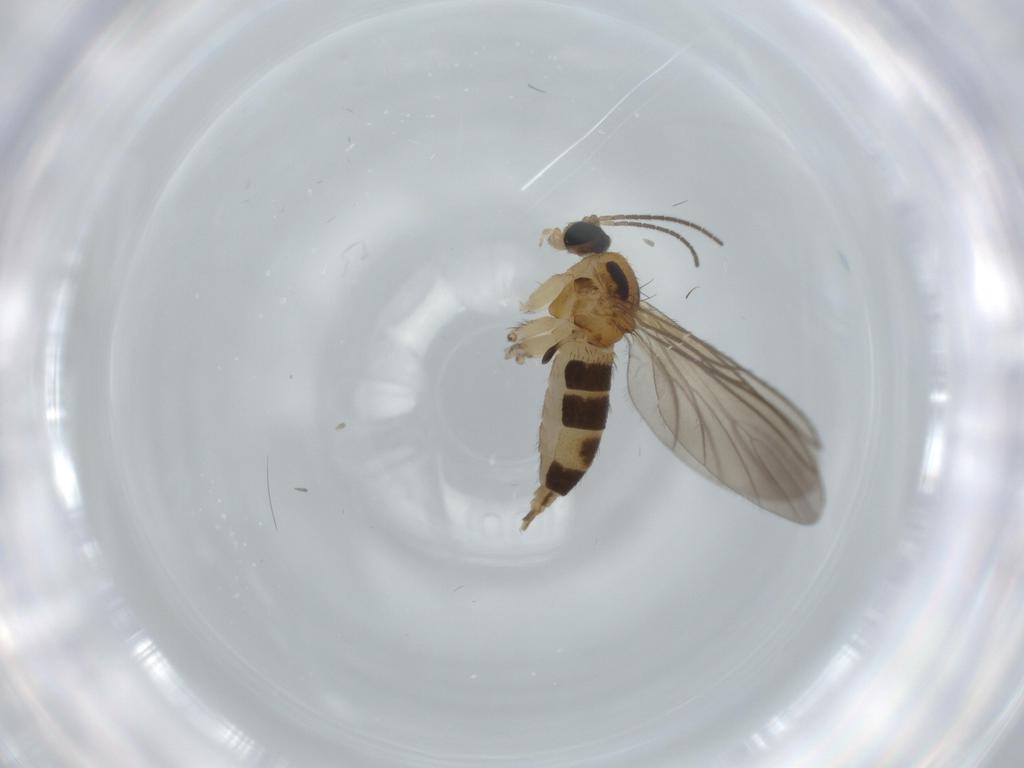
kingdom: Animalia
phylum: Arthropoda
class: Insecta
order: Diptera
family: Sciaridae
